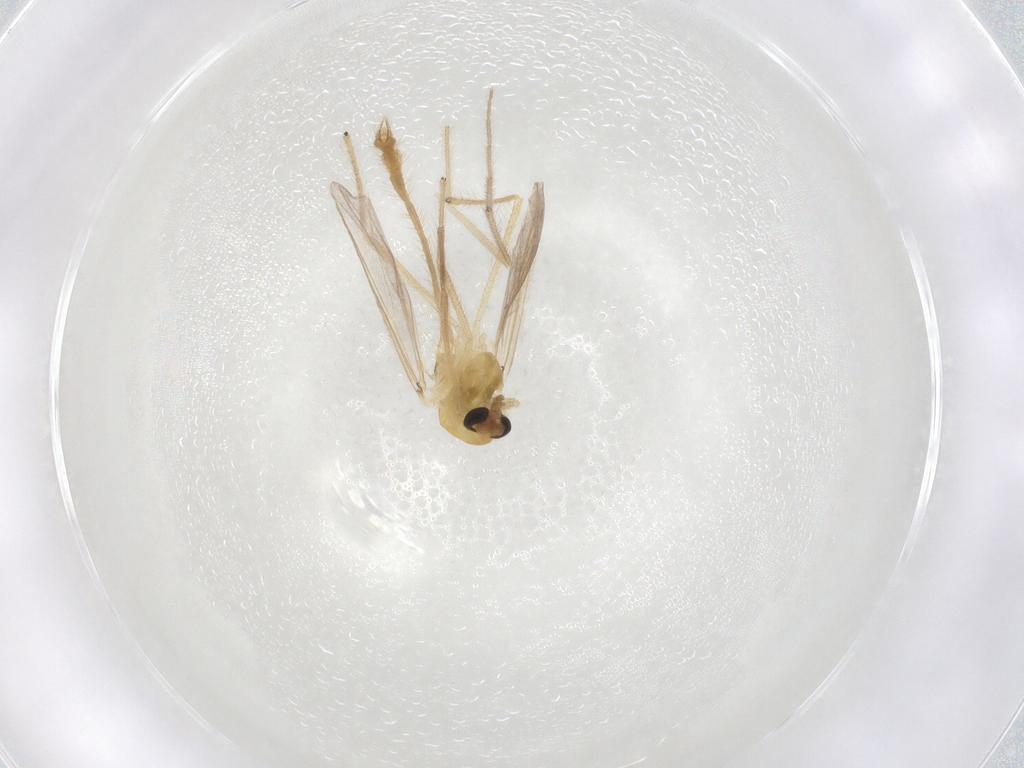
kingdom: Animalia
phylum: Arthropoda
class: Insecta
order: Diptera
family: Chironomidae
